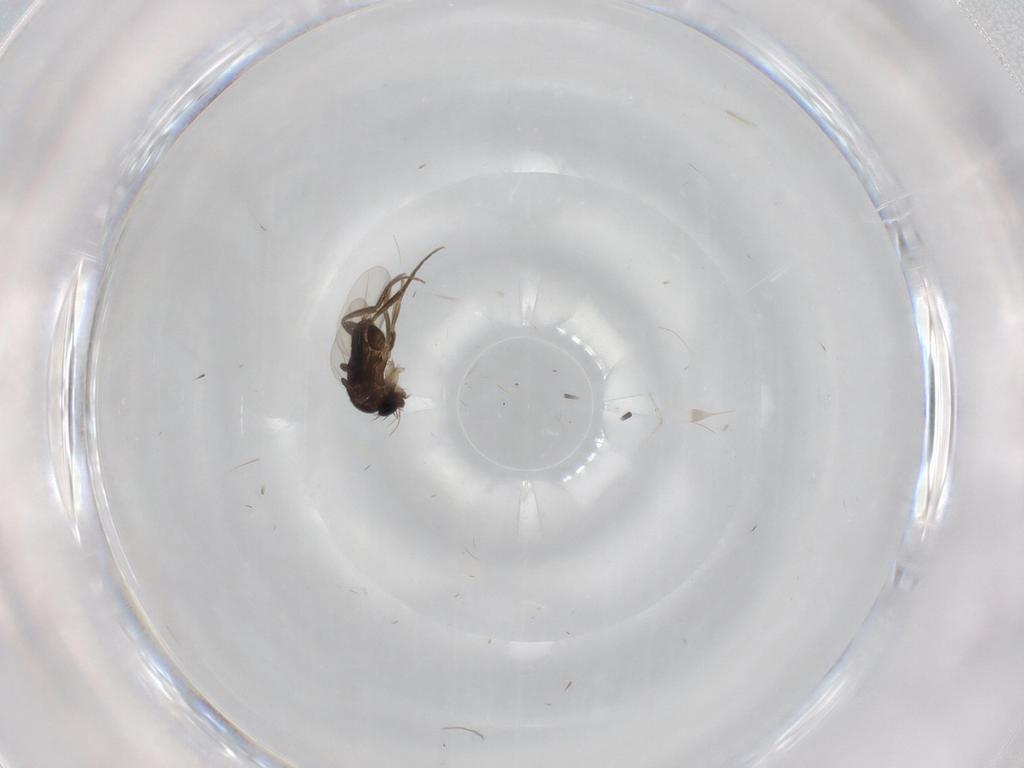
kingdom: Animalia
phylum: Arthropoda
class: Insecta
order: Diptera
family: Phoridae
